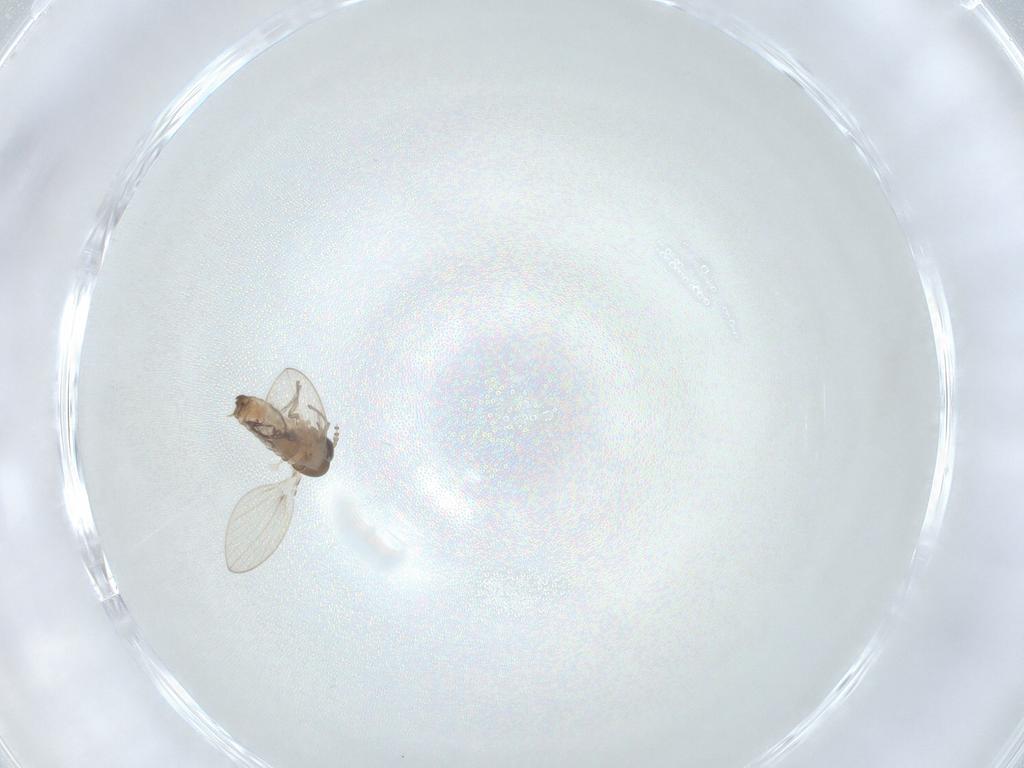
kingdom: Animalia
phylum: Arthropoda
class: Insecta
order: Diptera
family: Psychodidae
